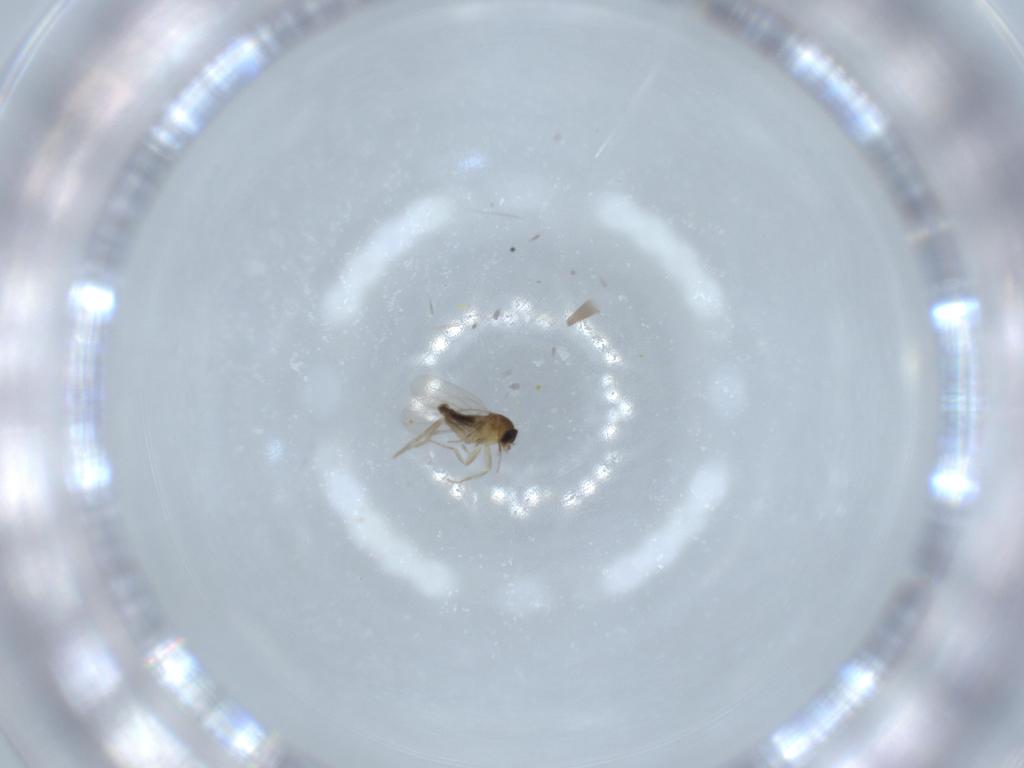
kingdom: Animalia
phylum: Arthropoda
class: Insecta
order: Diptera
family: Phoridae
